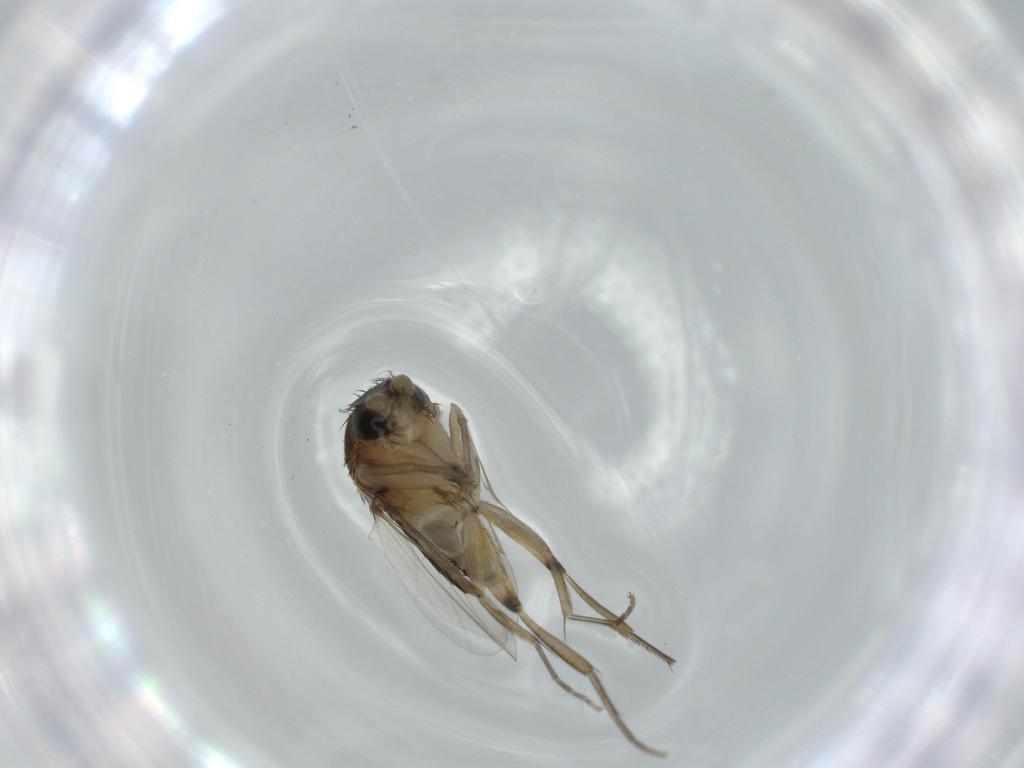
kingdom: Animalia
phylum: Arthropoda
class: Insecta
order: Diptera
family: Phoridae
